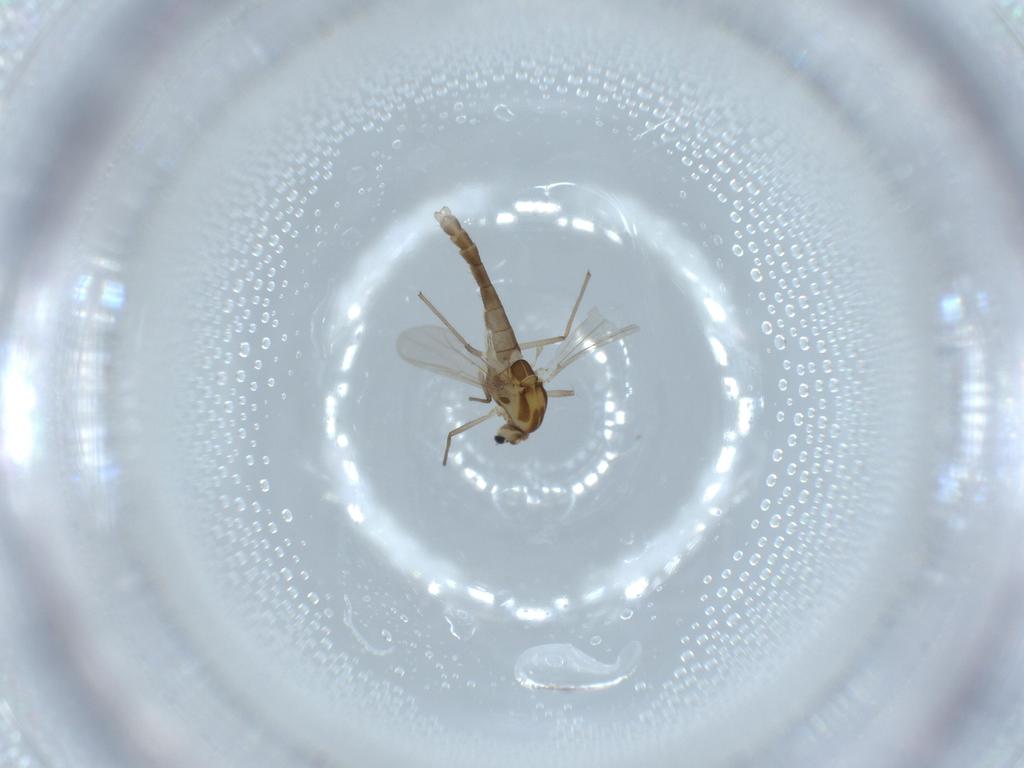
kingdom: Animalia
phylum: Arthropoda
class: Insecta
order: Diptera
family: Chironomidae
